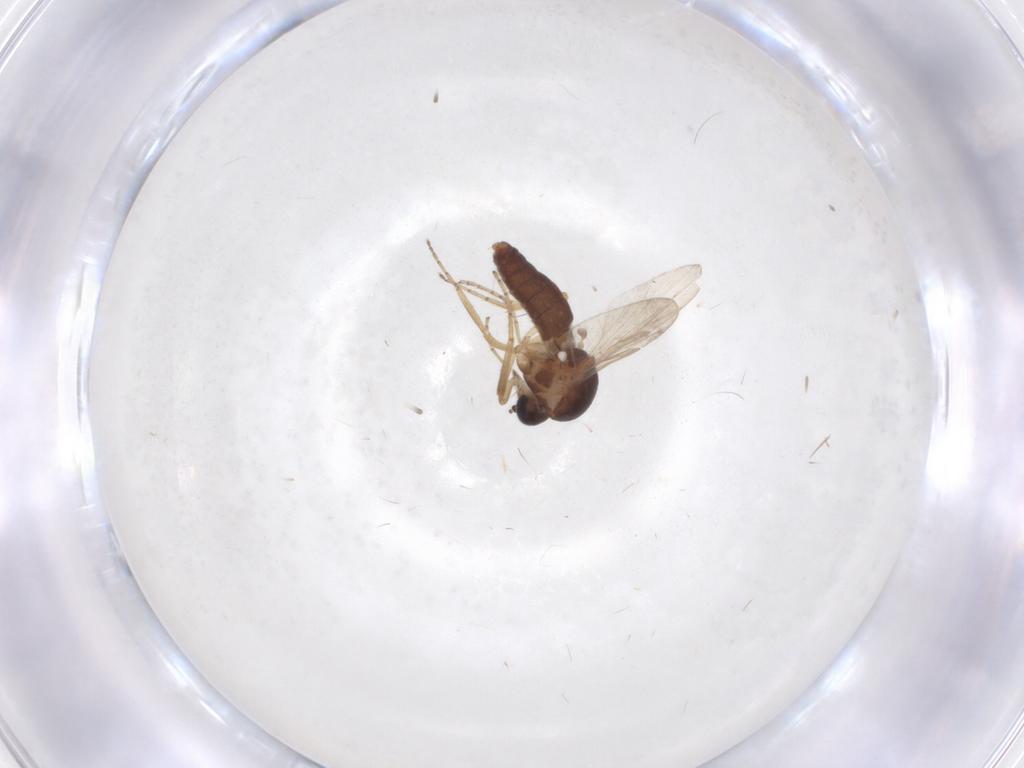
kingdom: Animalia
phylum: Arthropoda
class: Insecta
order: Diptera
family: Ceratopogonidae
